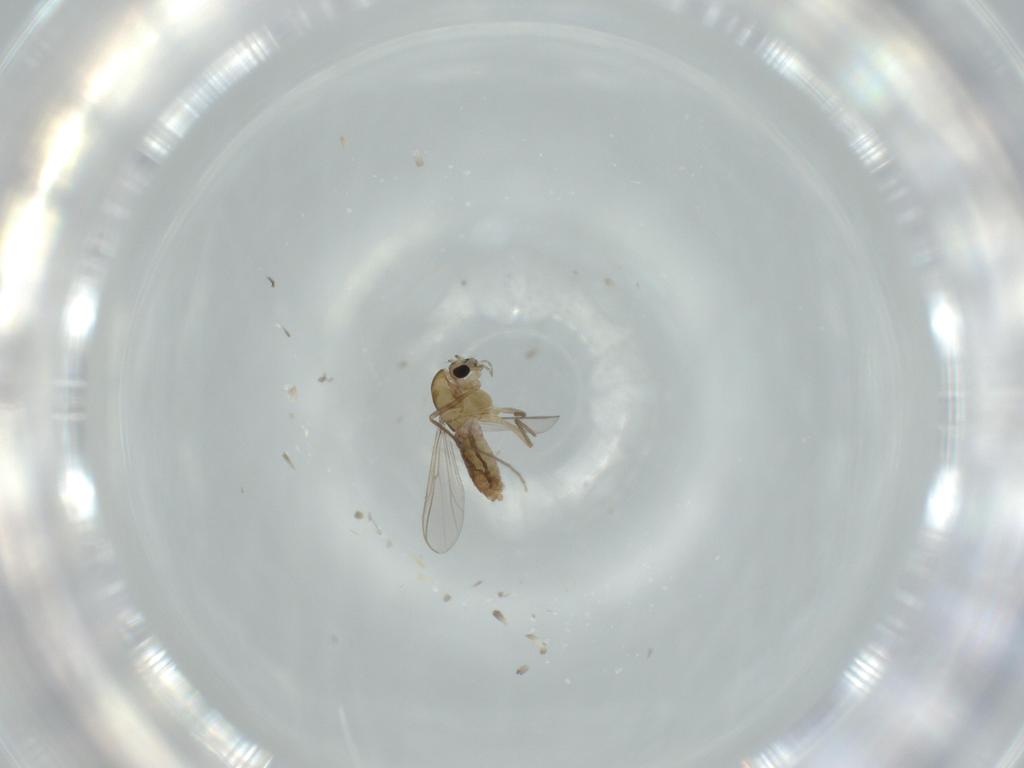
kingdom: Animalia
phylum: Arthropoda
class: Insecta
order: Diptera
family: Chironomidae
